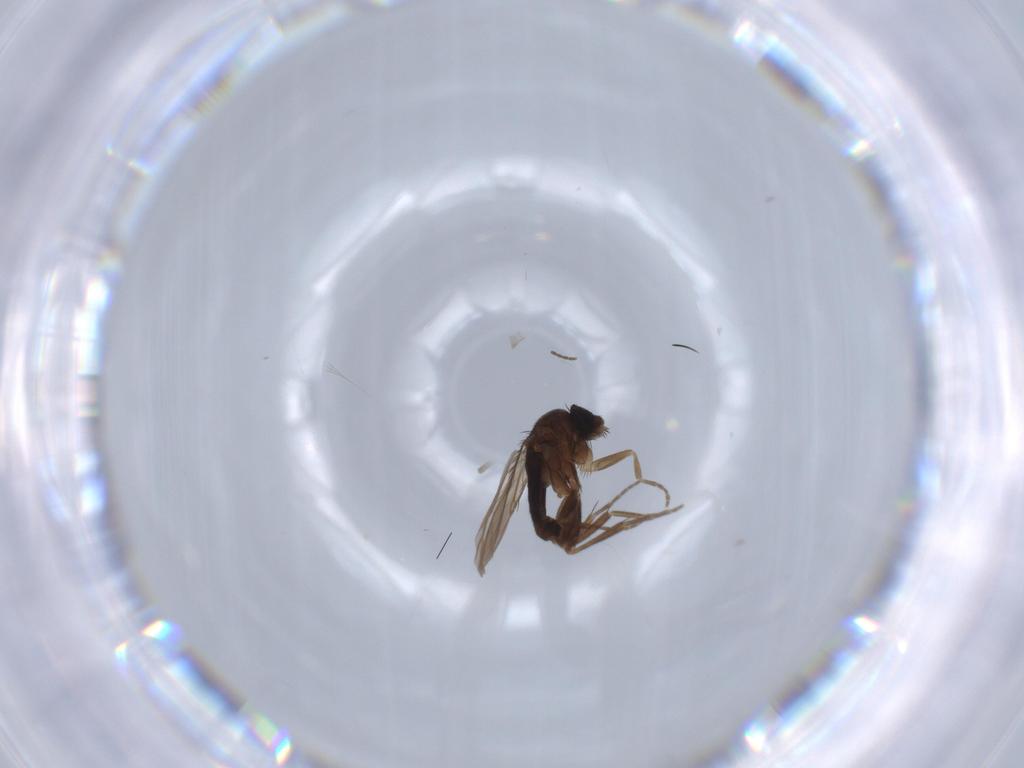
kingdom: Animalia
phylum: Arthropoda
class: Insecta
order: Diptera
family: Phoridae
